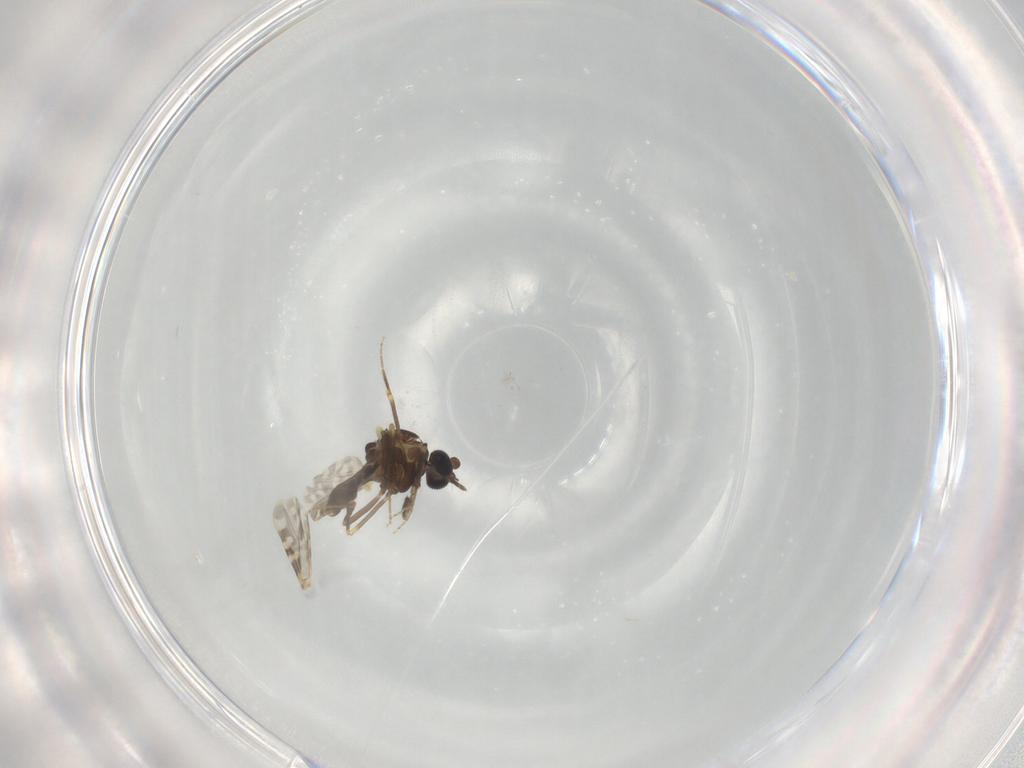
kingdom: Animalia
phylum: Arthropoda
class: Insecta
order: Diptera
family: Ceratopogonidae
